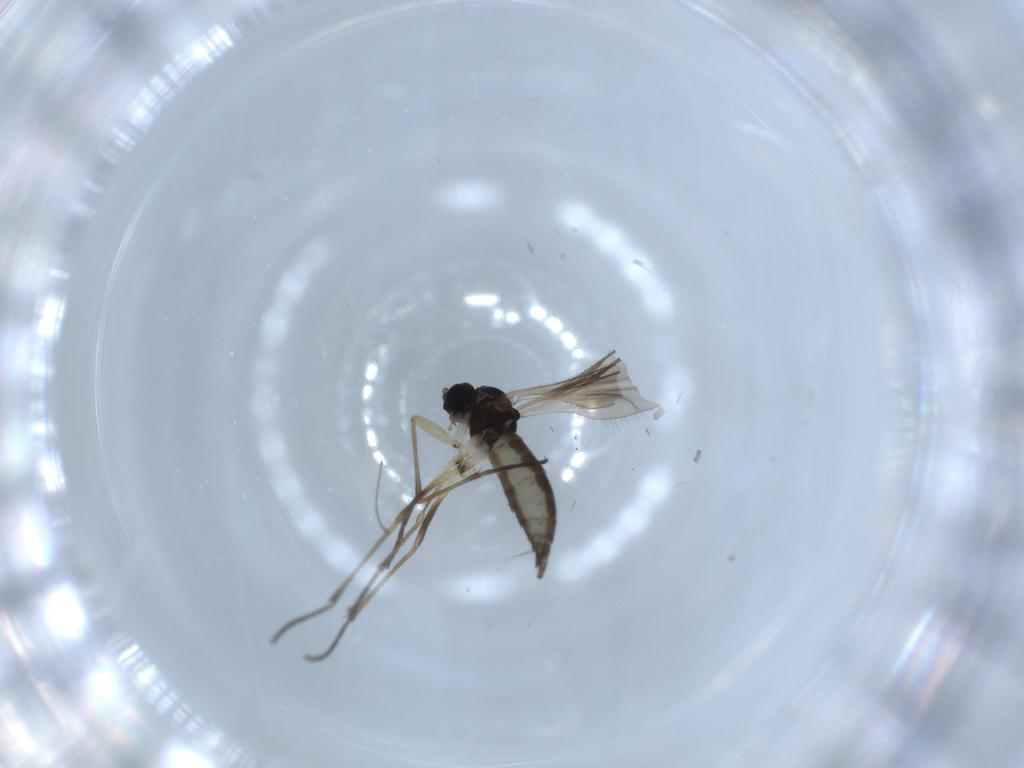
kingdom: Animalia
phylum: Arthropoda
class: Insecta
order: Diptera
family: Sciaridae
